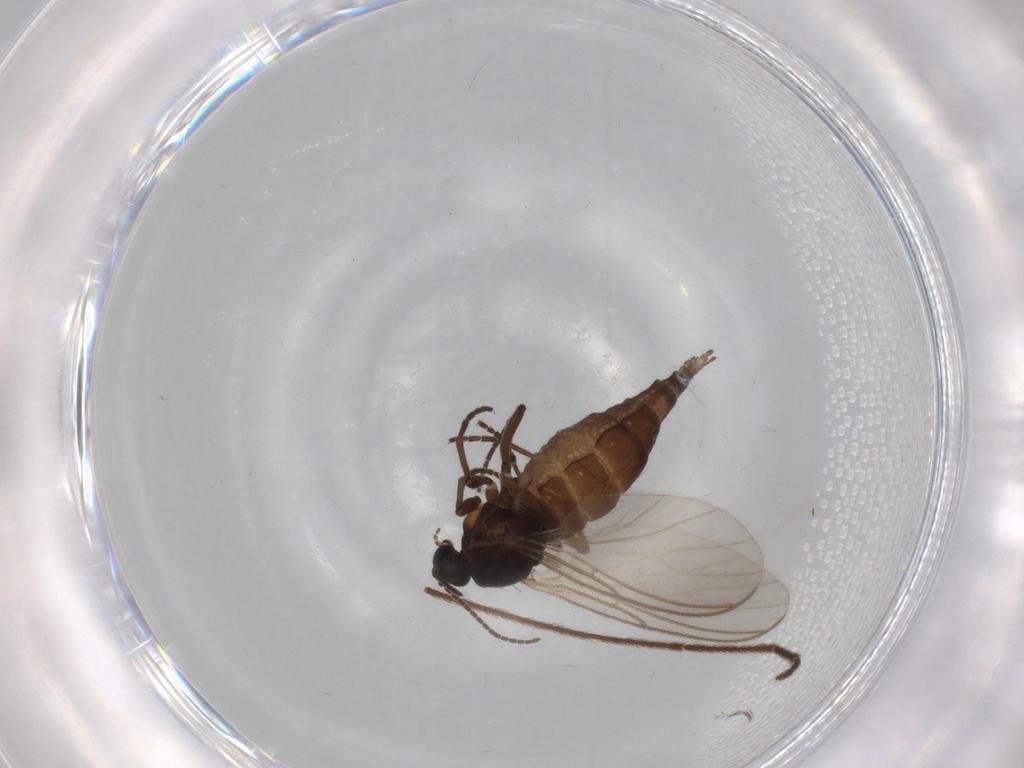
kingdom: Animalia
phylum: Arthropoda
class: Insecta
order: Diptera
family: Sciaridae
